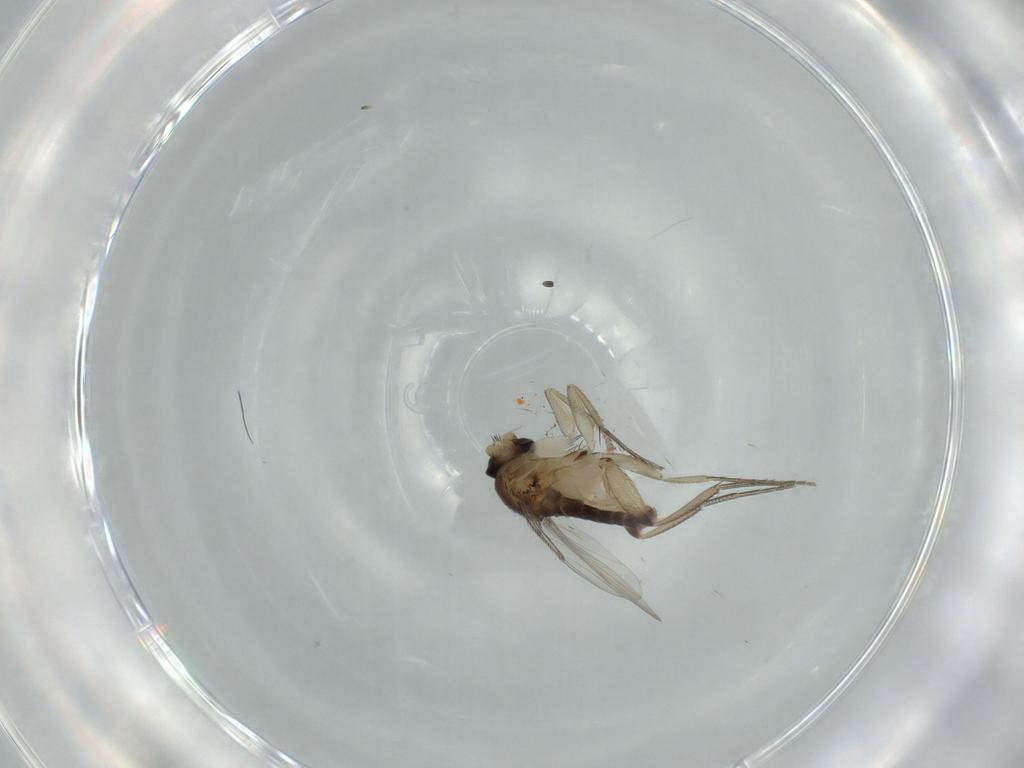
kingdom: Animalia
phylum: Arthropoda
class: Insecta
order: Diptera
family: Phoridae
